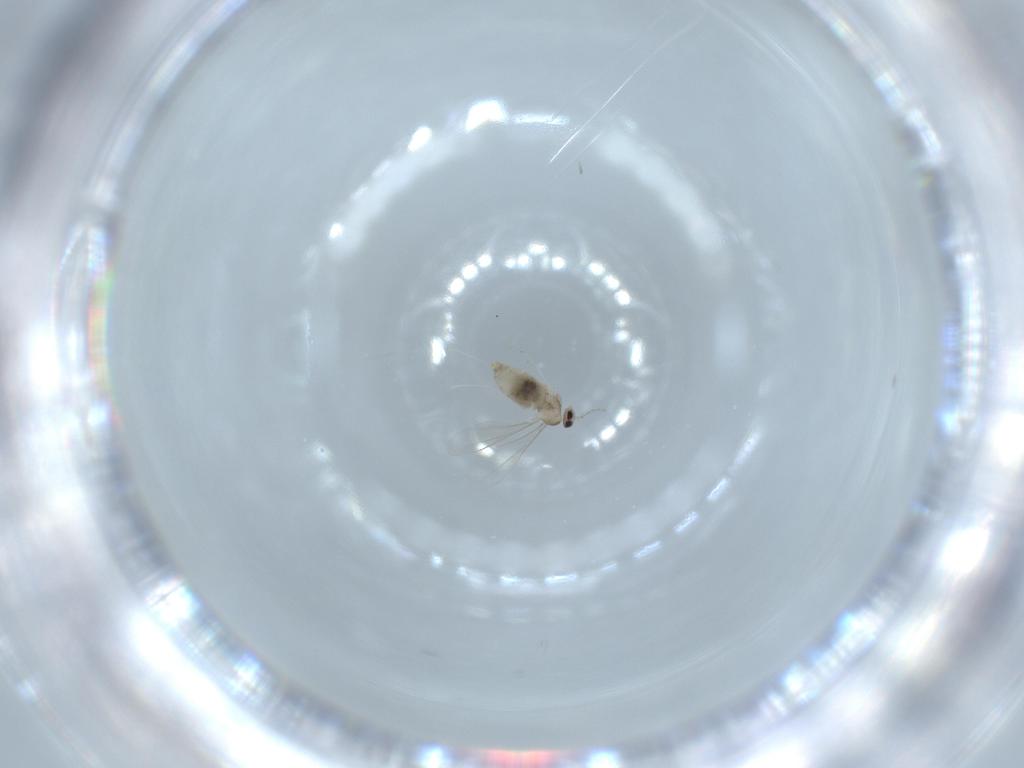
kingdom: Animalia
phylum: Arthropoda
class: Insecta
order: Diptera
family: Cecidomyiidae
